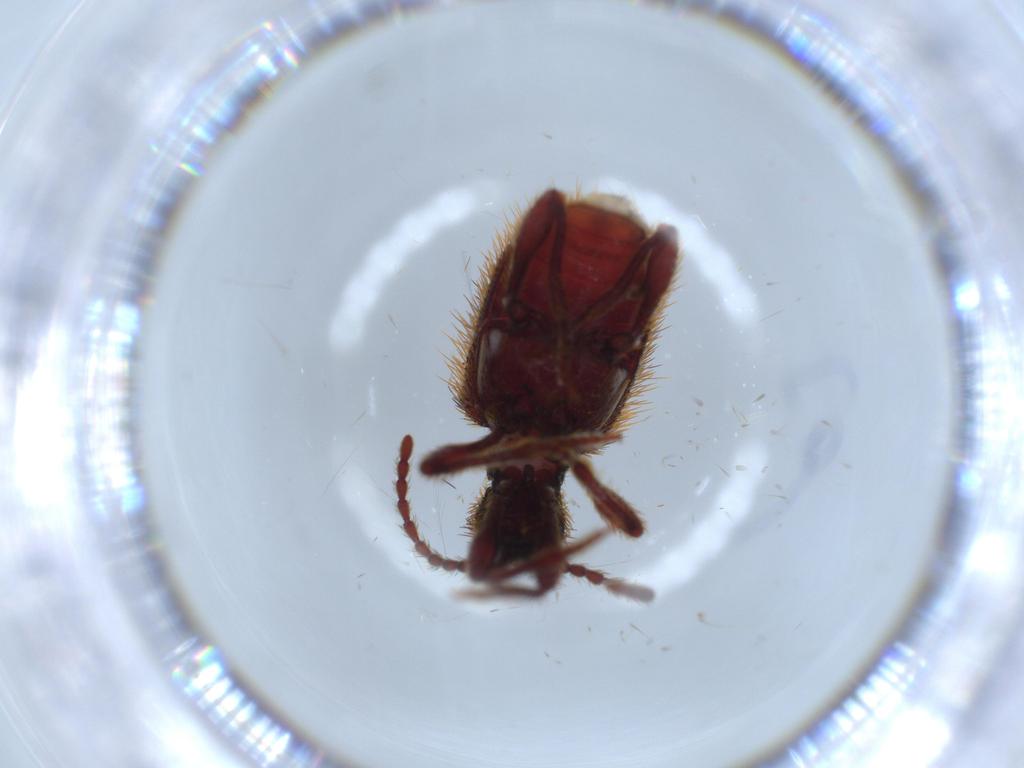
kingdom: Animalia
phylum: Arthropoda
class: Insecta
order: Coleoptera
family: Ptinidae
